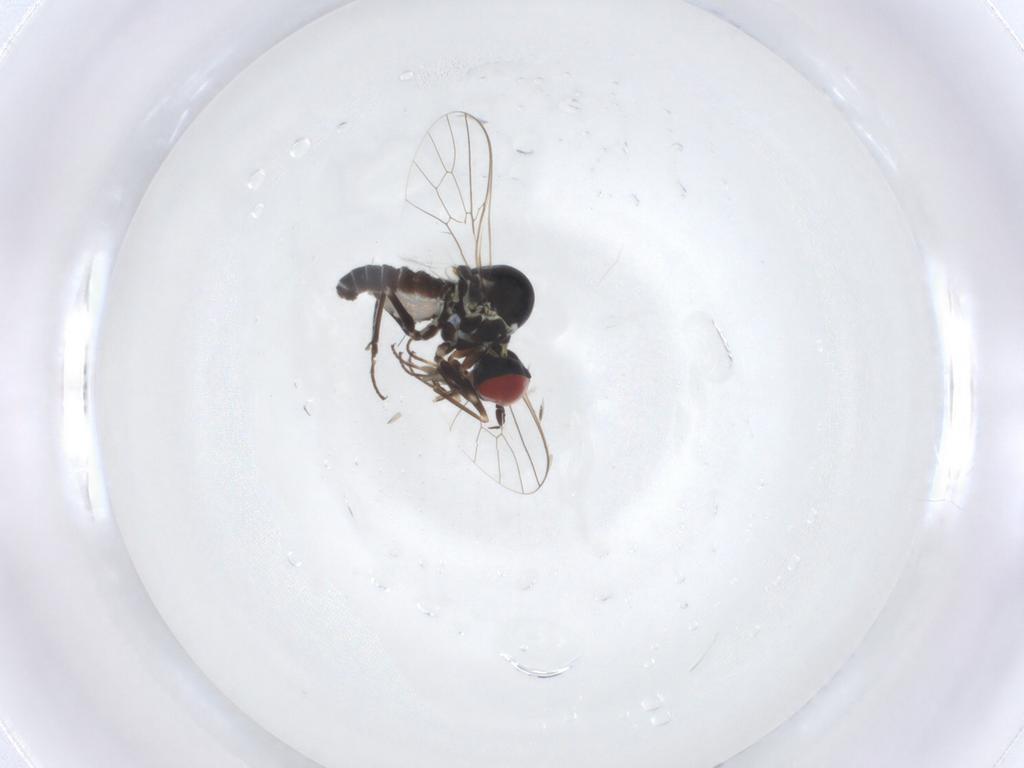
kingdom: Animalia
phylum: Arthropoda
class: Insecta
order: Diptera
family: Bombyliidae
